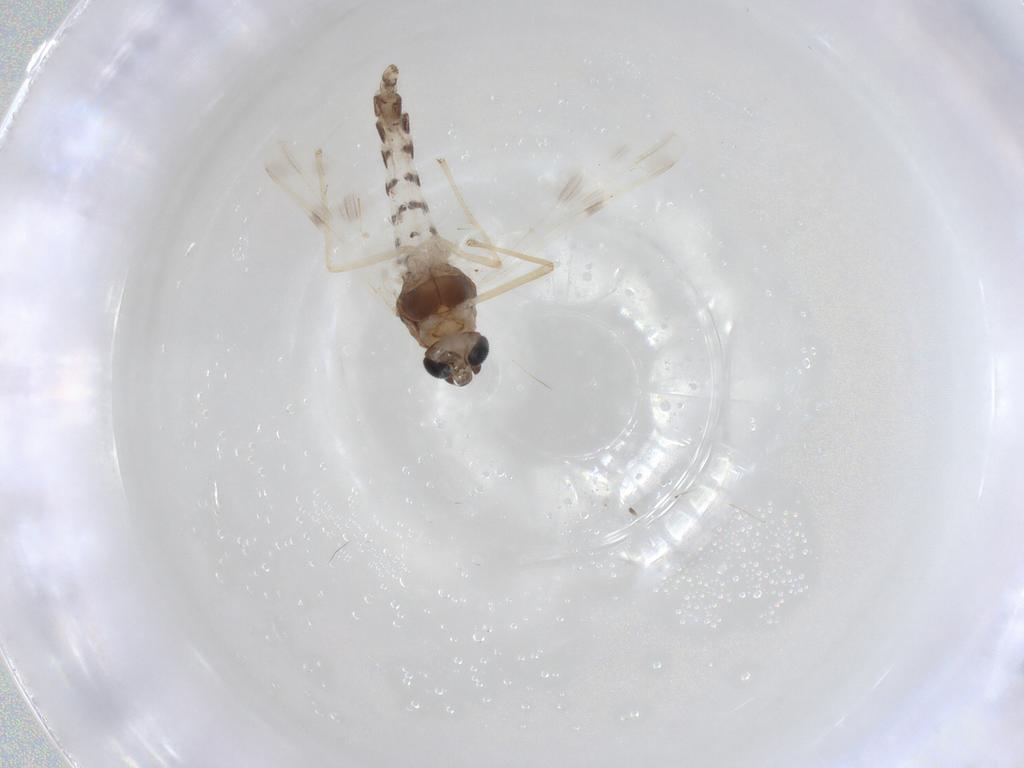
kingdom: Animalia
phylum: Arthropoda
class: Insecta
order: Diptera
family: Chironomidae
